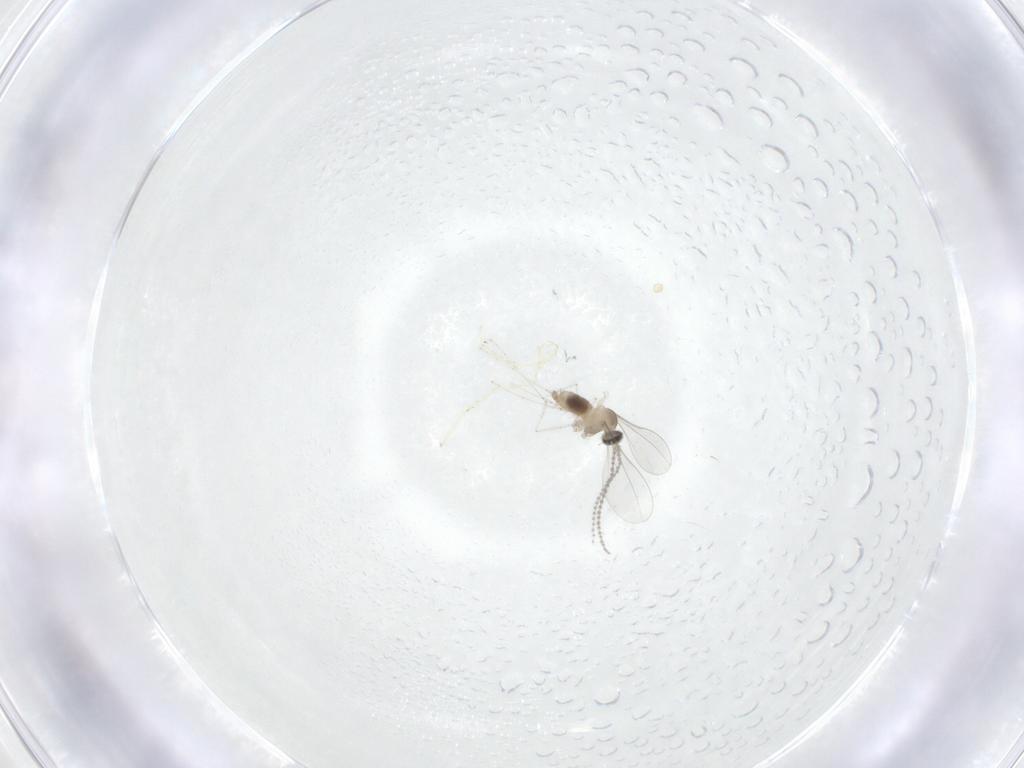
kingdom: Animalia
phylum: Arthropoda
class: Insecta
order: Diptera
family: Cecidomyiidae
